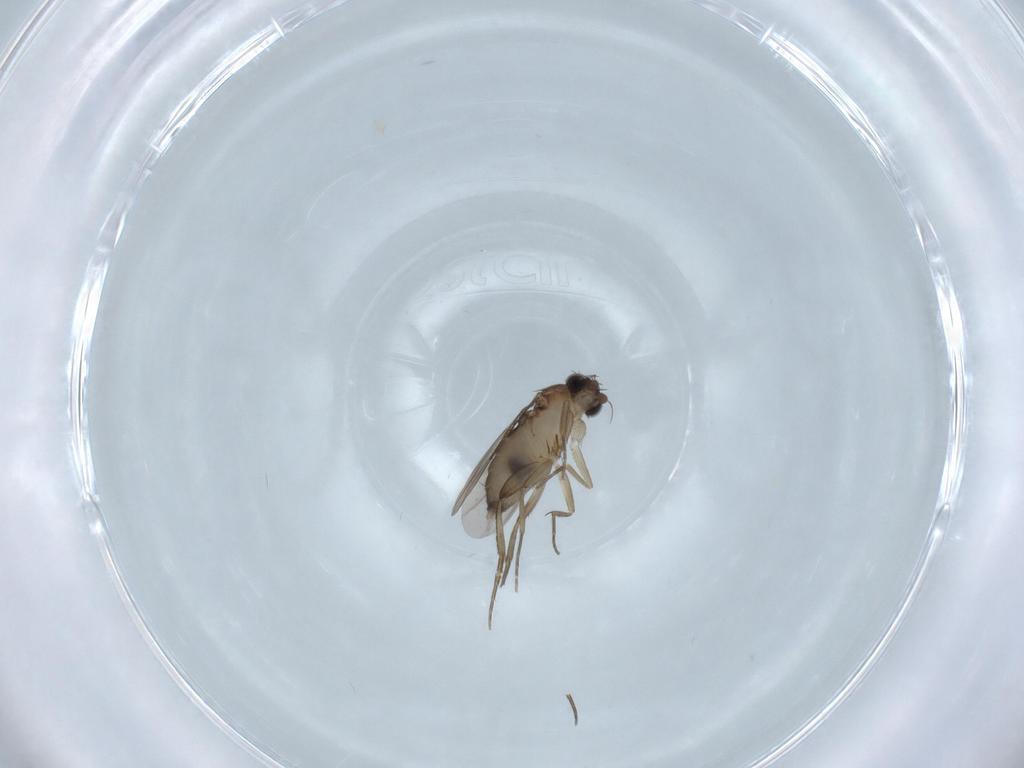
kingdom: Animalia
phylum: Arthropoda
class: Insecta
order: Diptera
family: Phoridae
